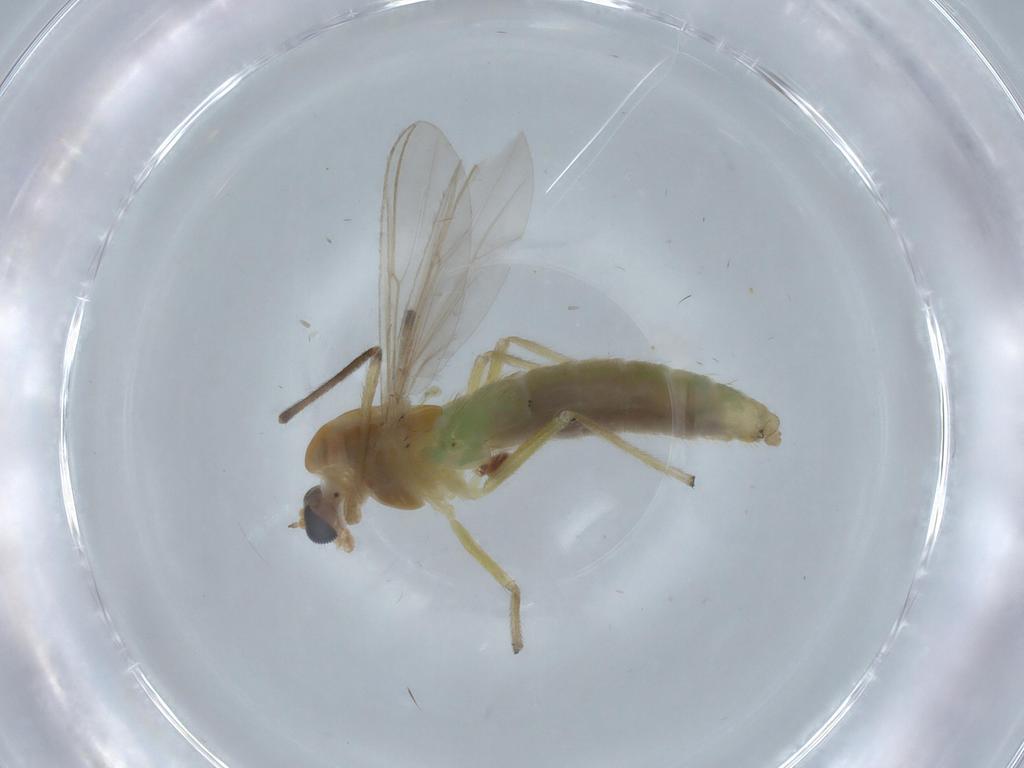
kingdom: Animalia
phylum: Arthropoda
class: Insecta
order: Diptera
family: Chironomidae
